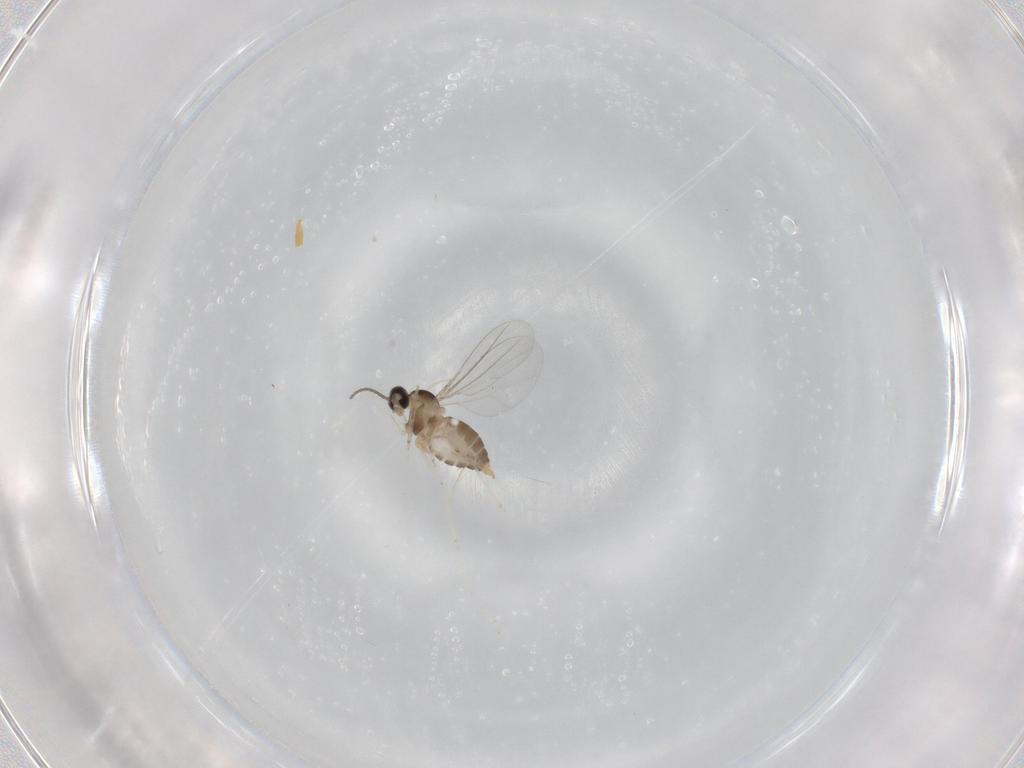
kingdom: Animalia
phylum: Arthropoda
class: Insecta
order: Diptera
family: Cecidomyiidae
